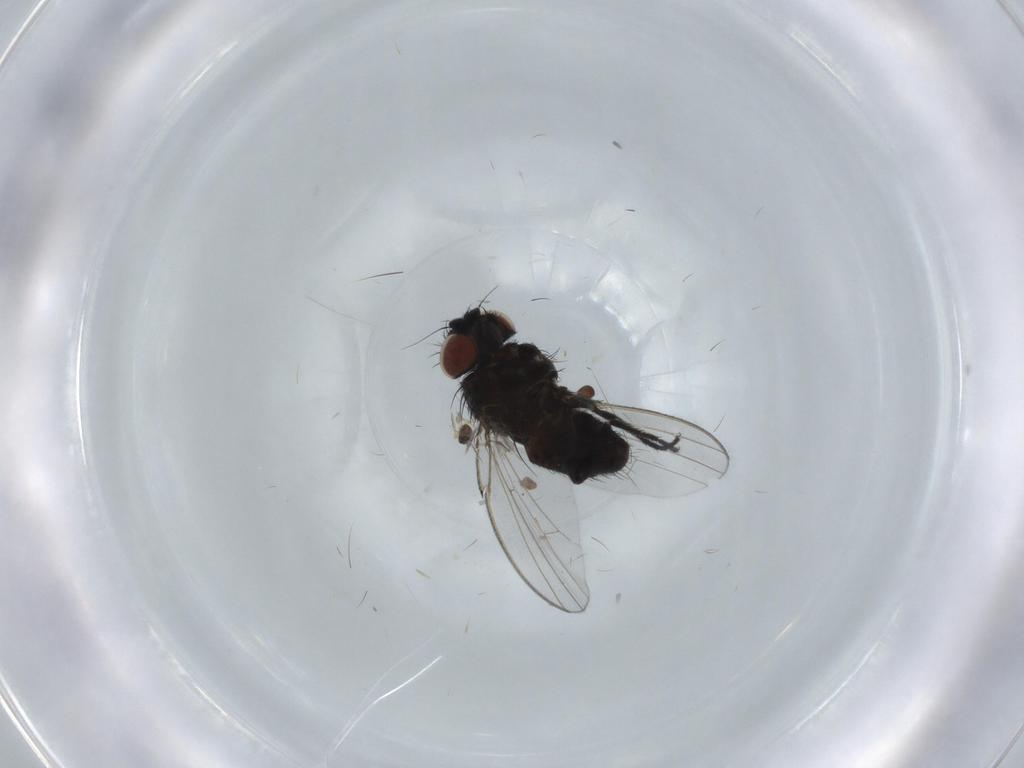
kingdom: Animalia
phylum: Arthropoda
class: Insecta
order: Diptera
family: Milichiidae
